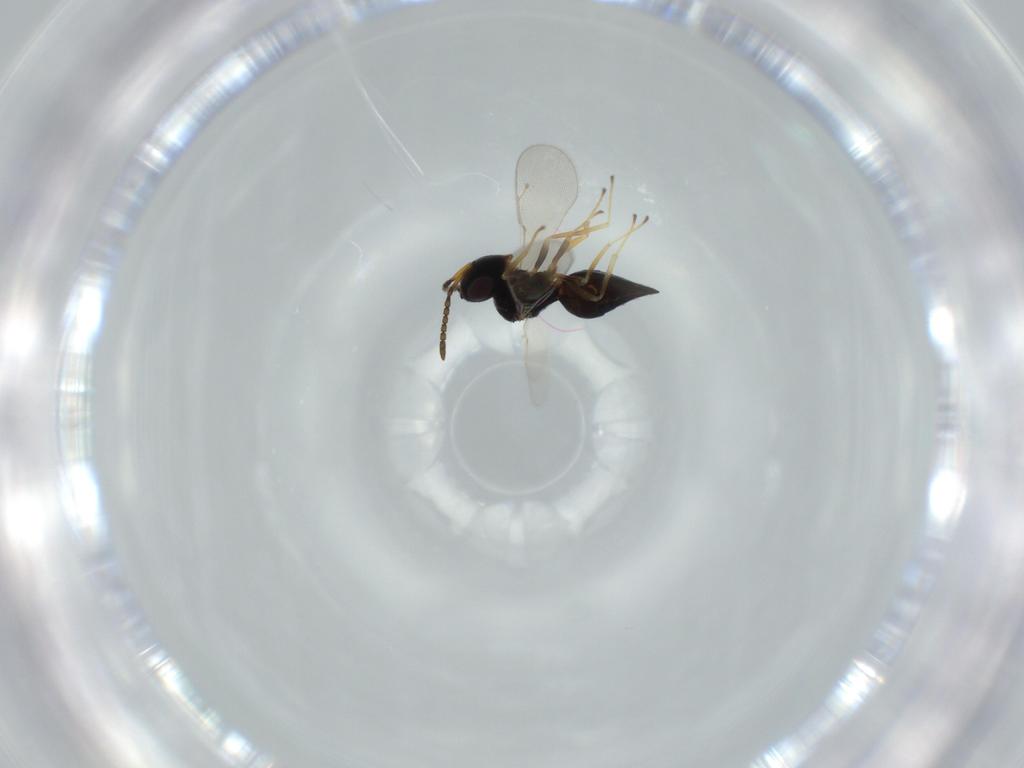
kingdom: Animalia
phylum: Arthropoda
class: Insecta
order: Hymenoptera
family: Pteromalidae
